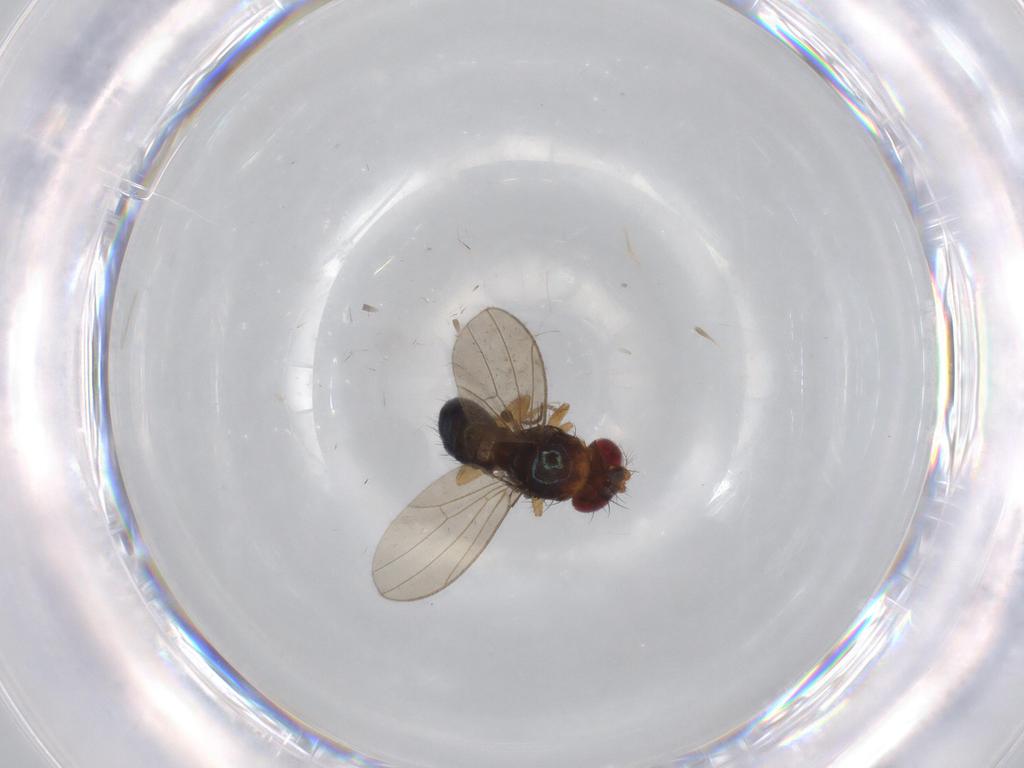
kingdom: Animalia
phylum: Arthropoda
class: Insecta
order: Diptera
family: Drosophilidae
